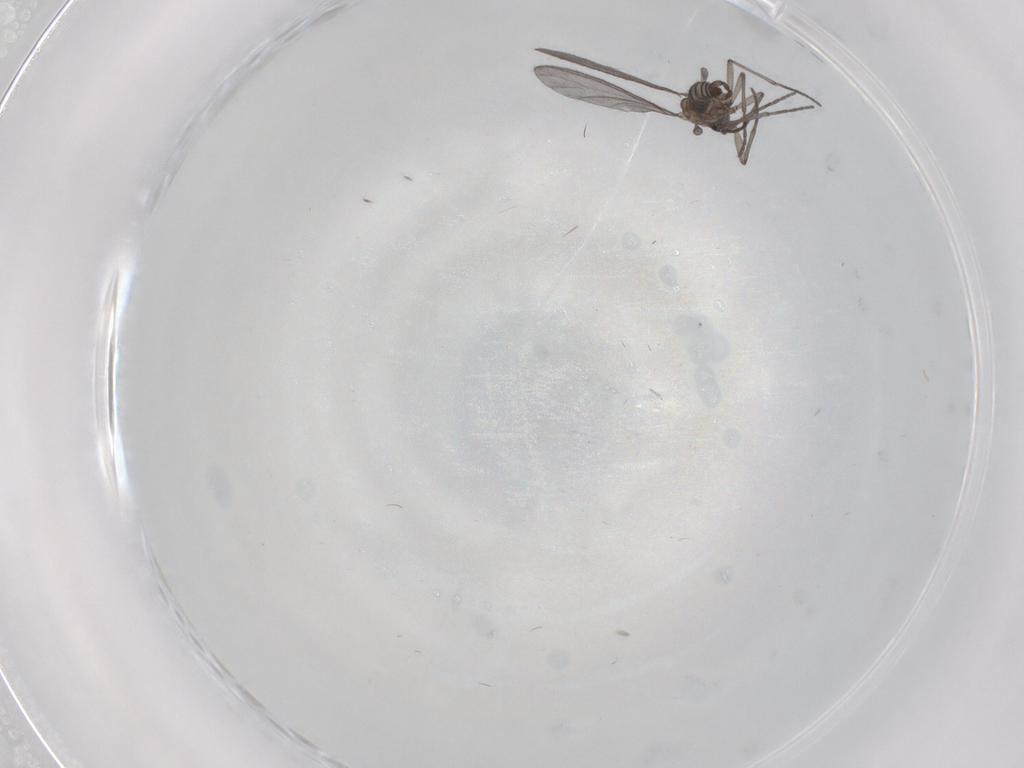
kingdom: Animalia
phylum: Arthropoda
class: Insecta
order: Diptera
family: Sciaridae
